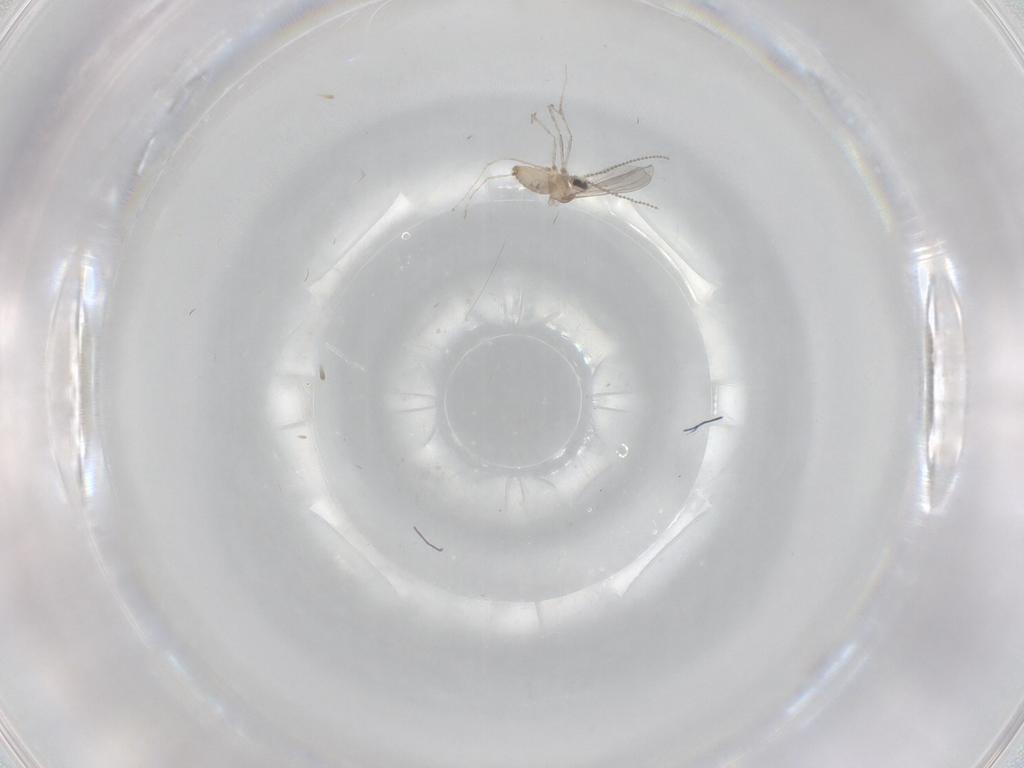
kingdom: Animalia
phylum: Arthropoda
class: Insecta
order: Diptera
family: Cecidomyiidae
